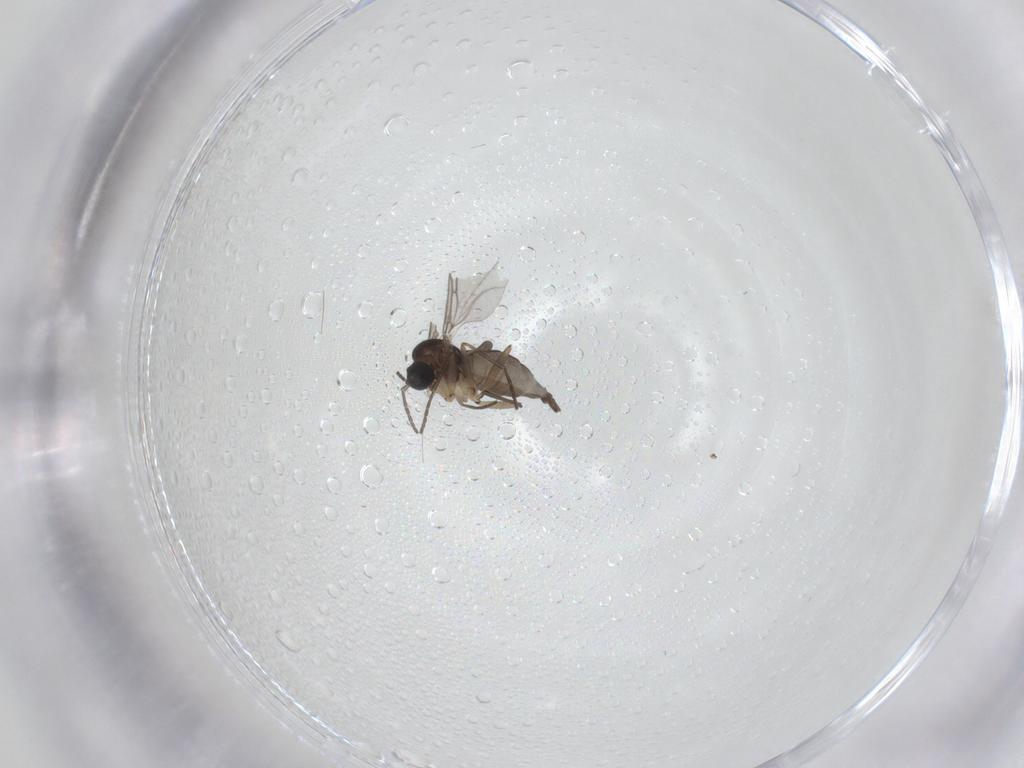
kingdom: Animalia
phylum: Arthropoda
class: Insecta
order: Diptera
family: Sciaridae
